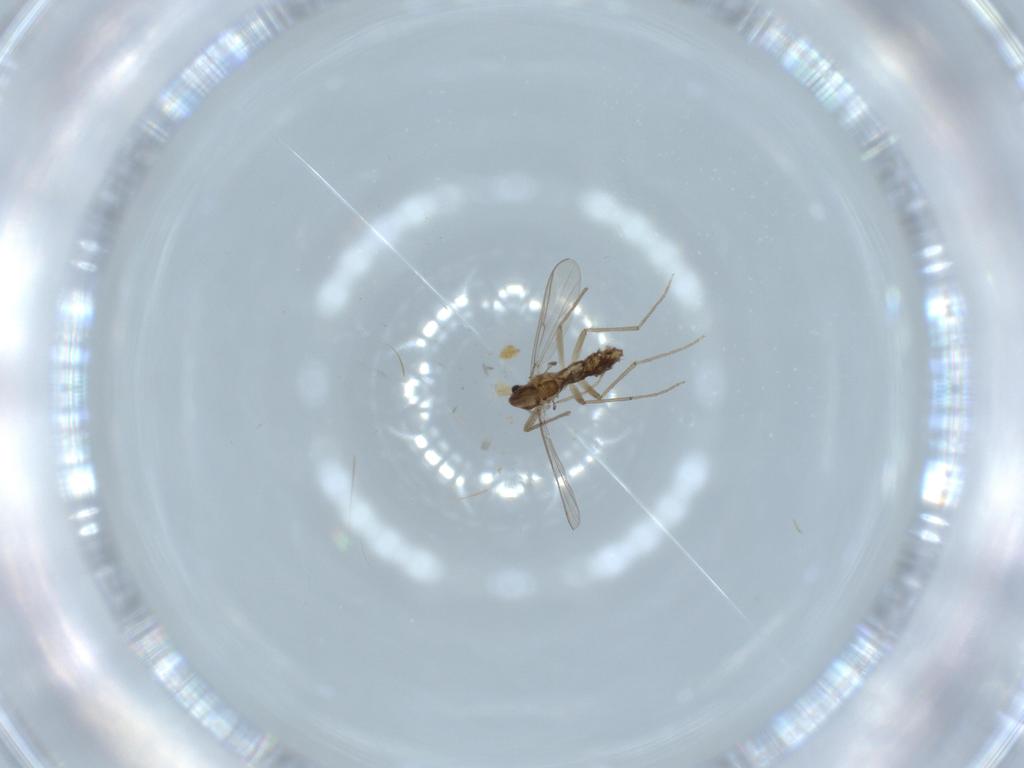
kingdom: Animalia
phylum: Arthropoda
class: Insecta
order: Diptera
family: Chironomidae
